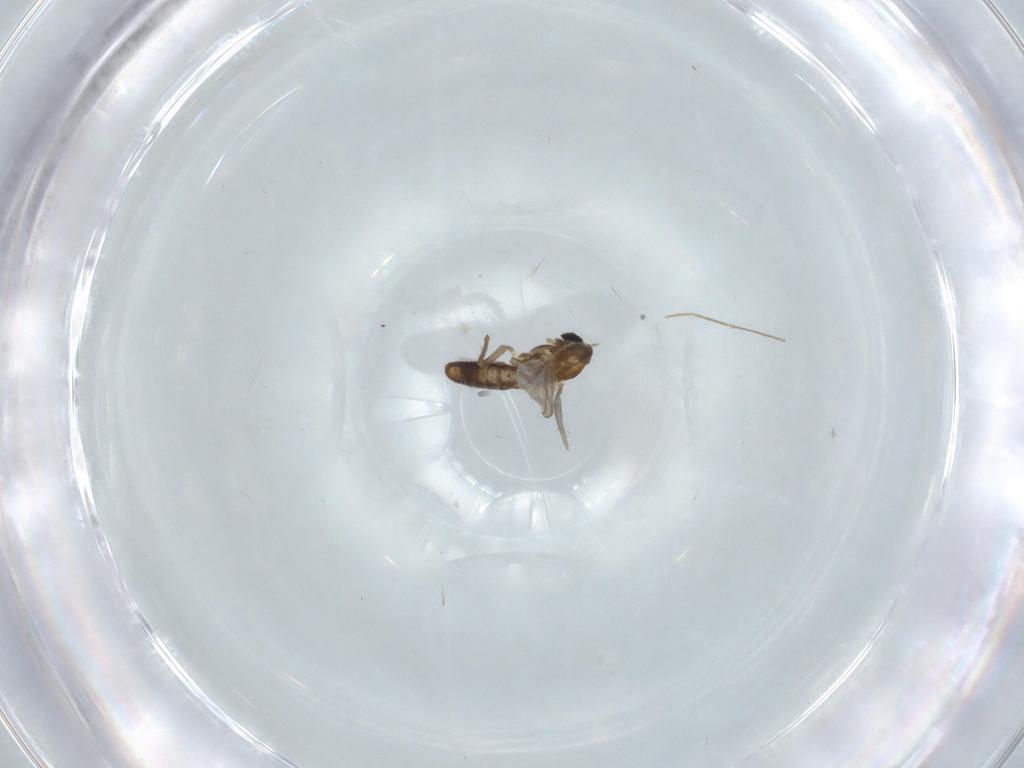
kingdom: Animalia
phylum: Arthropoda
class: Insecta
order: Diptera
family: Chironomidae
